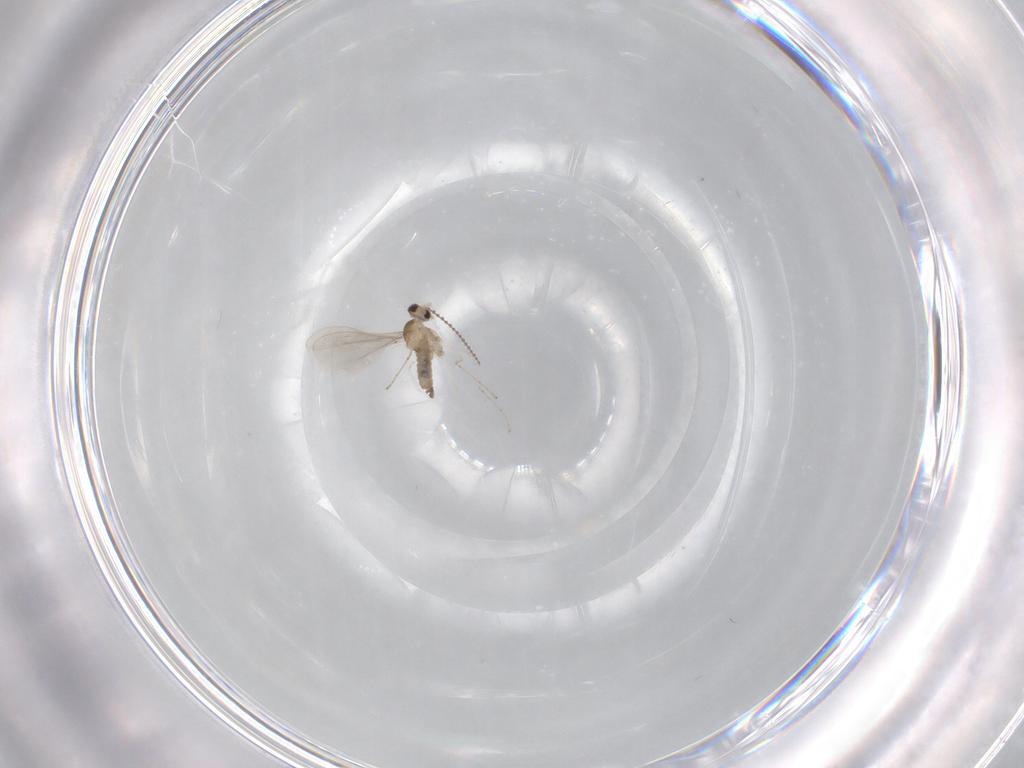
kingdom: Animalia
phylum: Arthropoda
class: Insecta
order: Diptera
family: Cecidomyiidae
